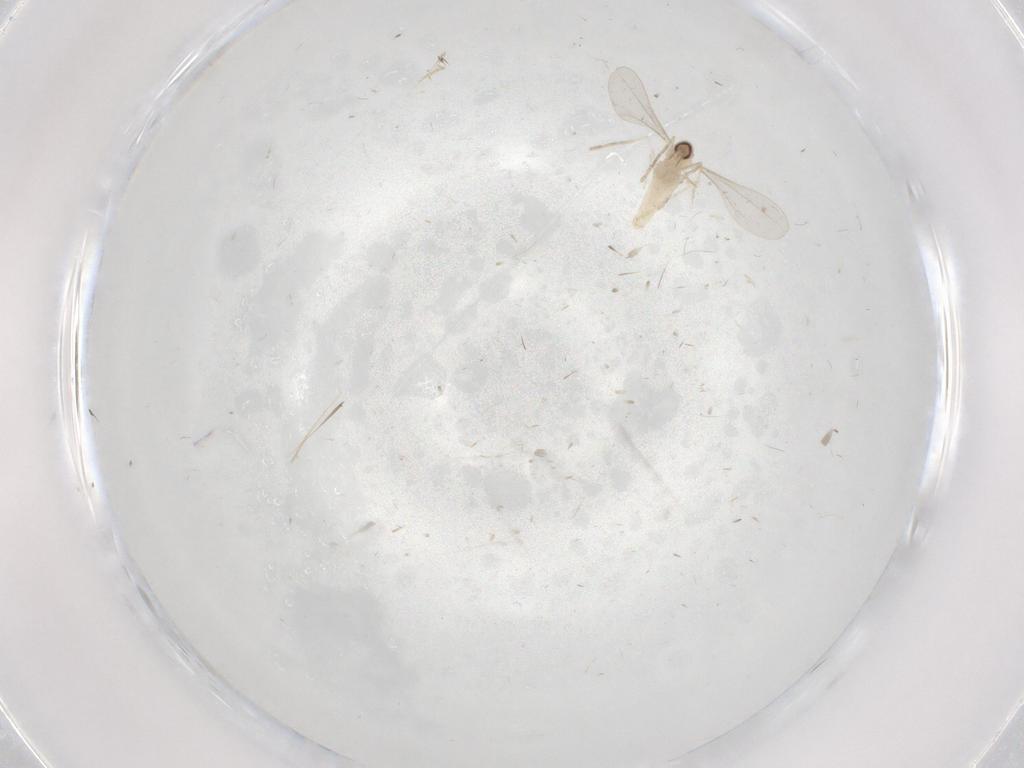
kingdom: Animalia
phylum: Arthropoda
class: Insecta
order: Diptera
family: Cecidomyiidae
